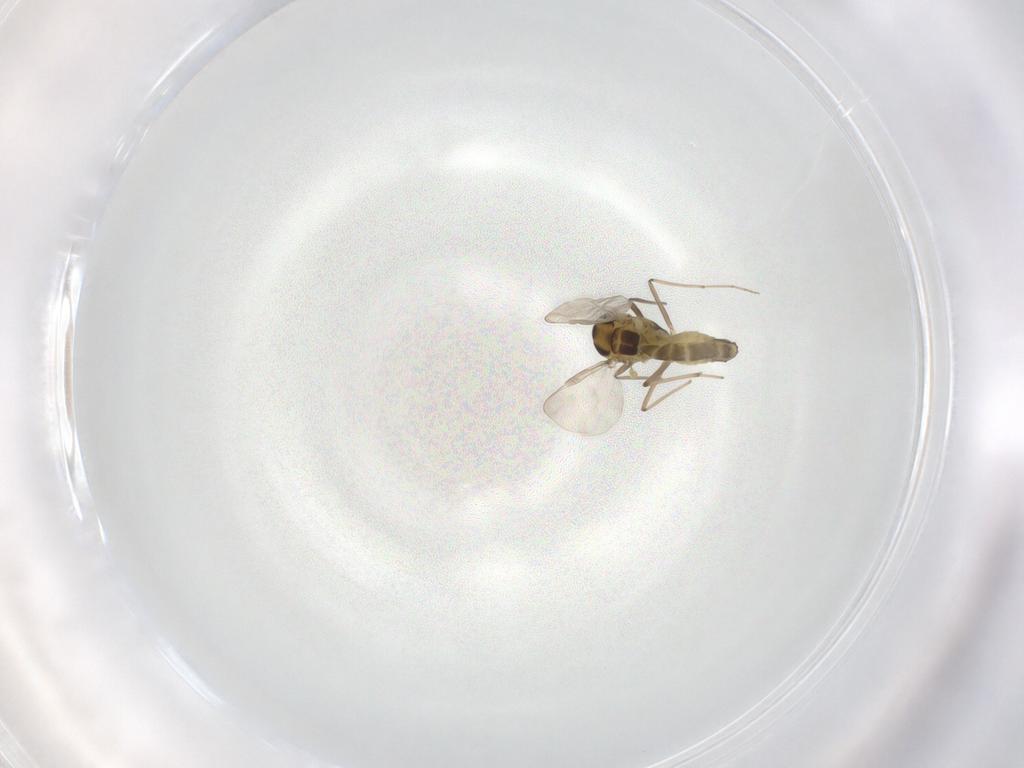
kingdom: Animalia
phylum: Arthropoda
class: Insecta
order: Diptera
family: Chironomidae
